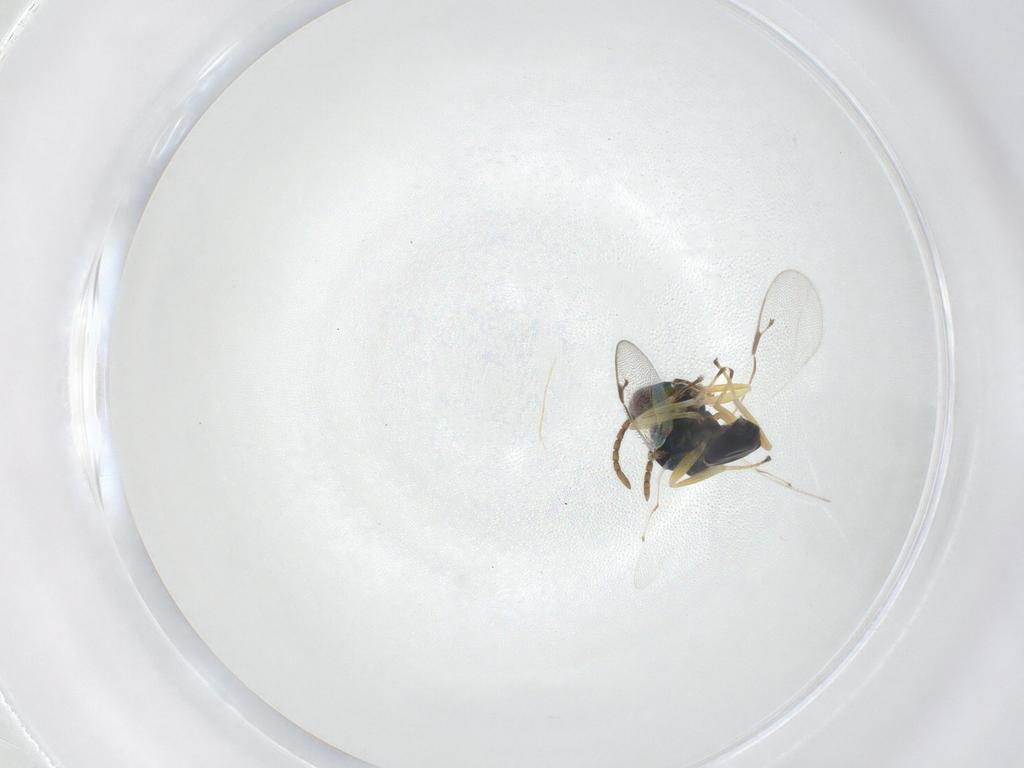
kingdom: Animalia
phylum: Arthropoda
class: Insecta
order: Hymenoptera
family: Pteromalidae
